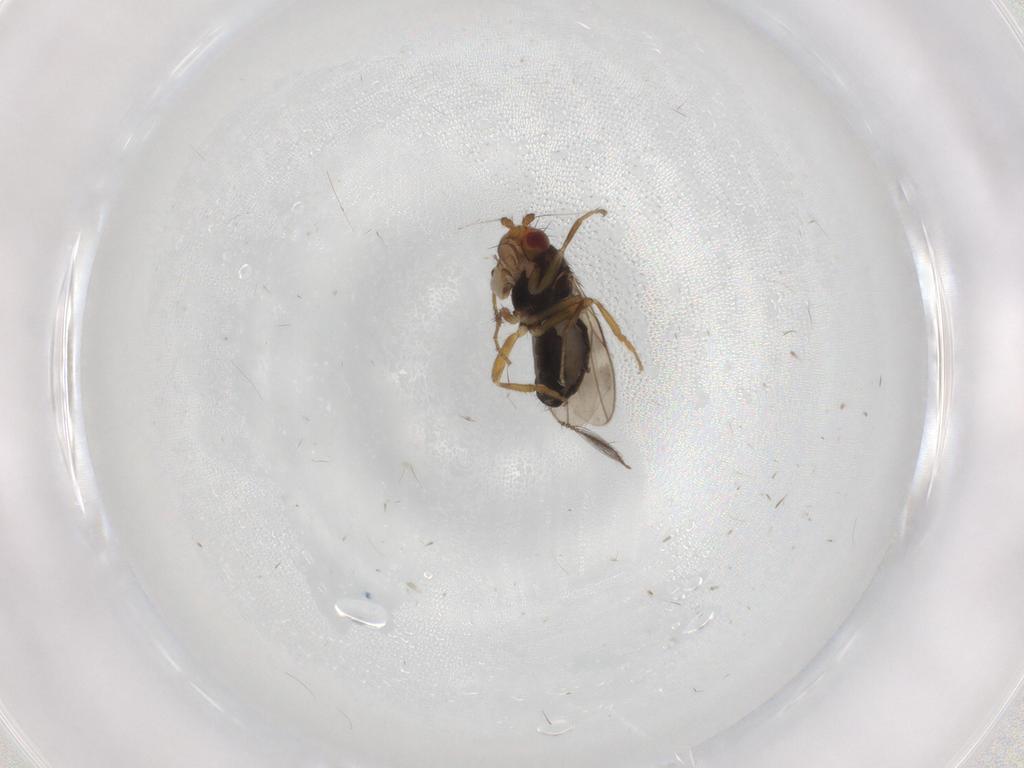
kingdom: Animalia
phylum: Arthropoda
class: Insecta
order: Diptera
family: Sphaeroceridae
